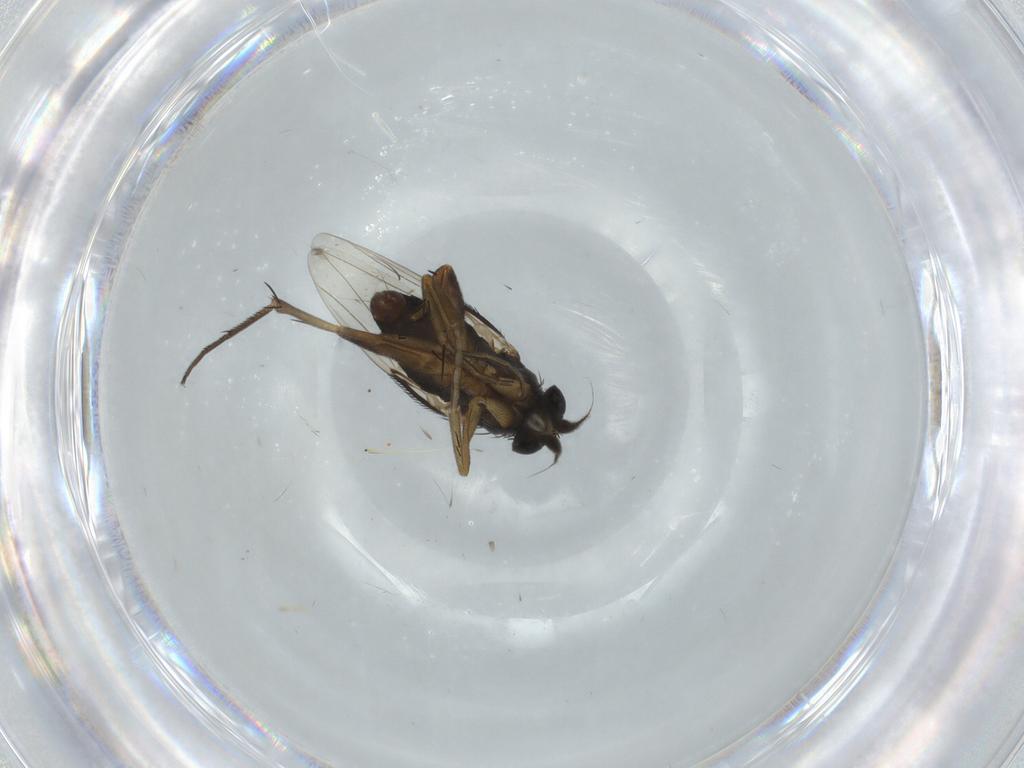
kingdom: Animalia
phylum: Arthropoda
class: Insecta
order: Diptera
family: Phoridae
